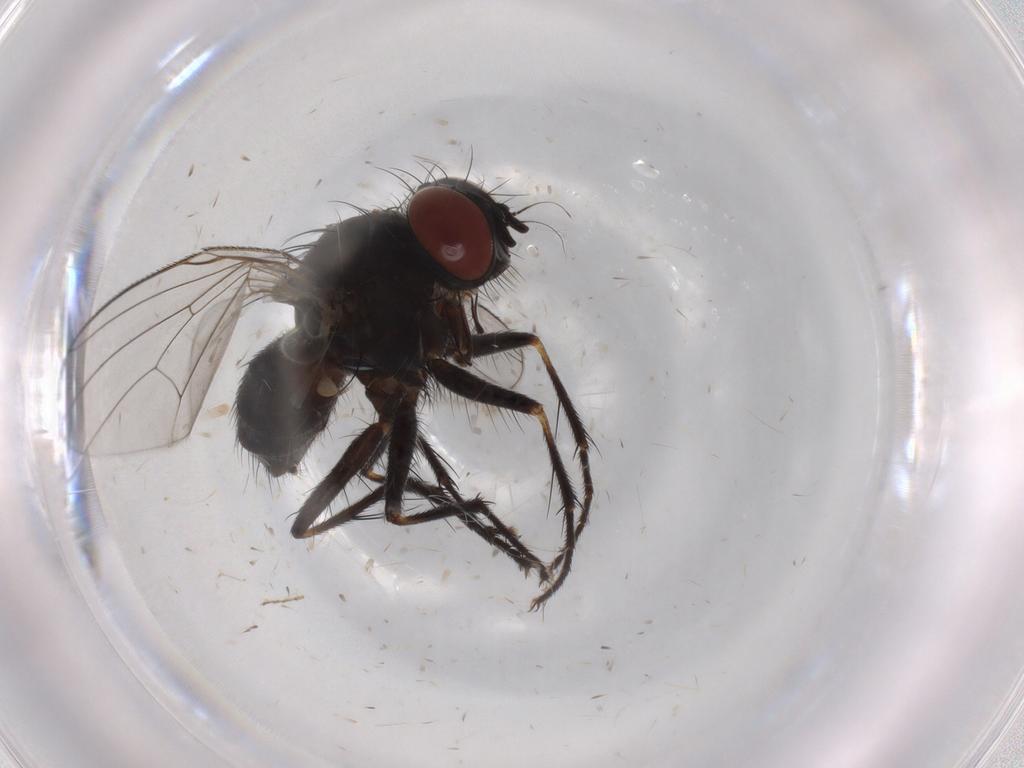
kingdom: Animalia
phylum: Arthropoda
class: Insecta
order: Diptera
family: Muscidae
